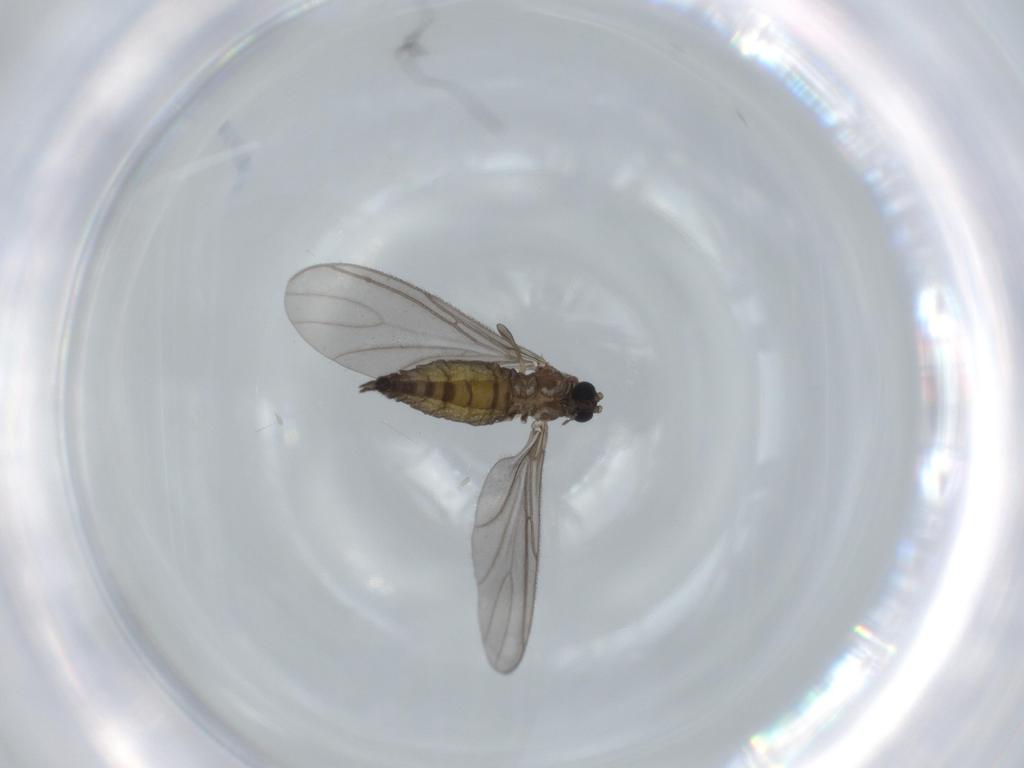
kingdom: Animalia
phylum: Arthropoda
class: Insecta
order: Diptera
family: Sciaridae
